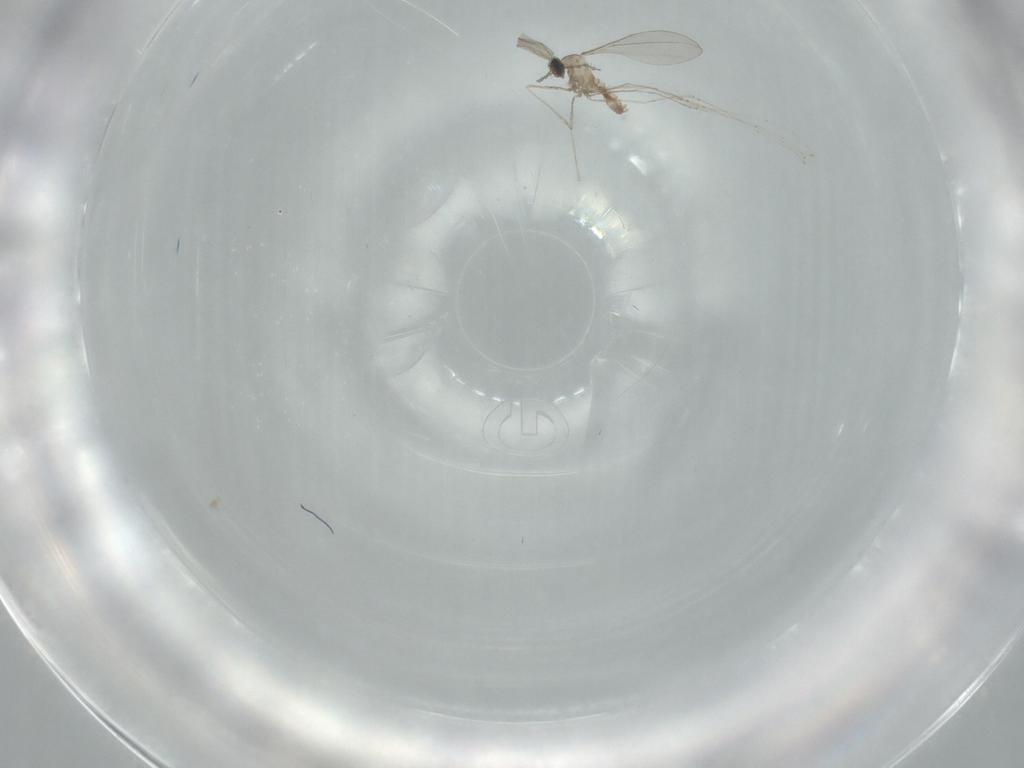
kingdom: Animalia
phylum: Arthropoda
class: Insecta
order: Diptera
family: Cecidomyiidae
